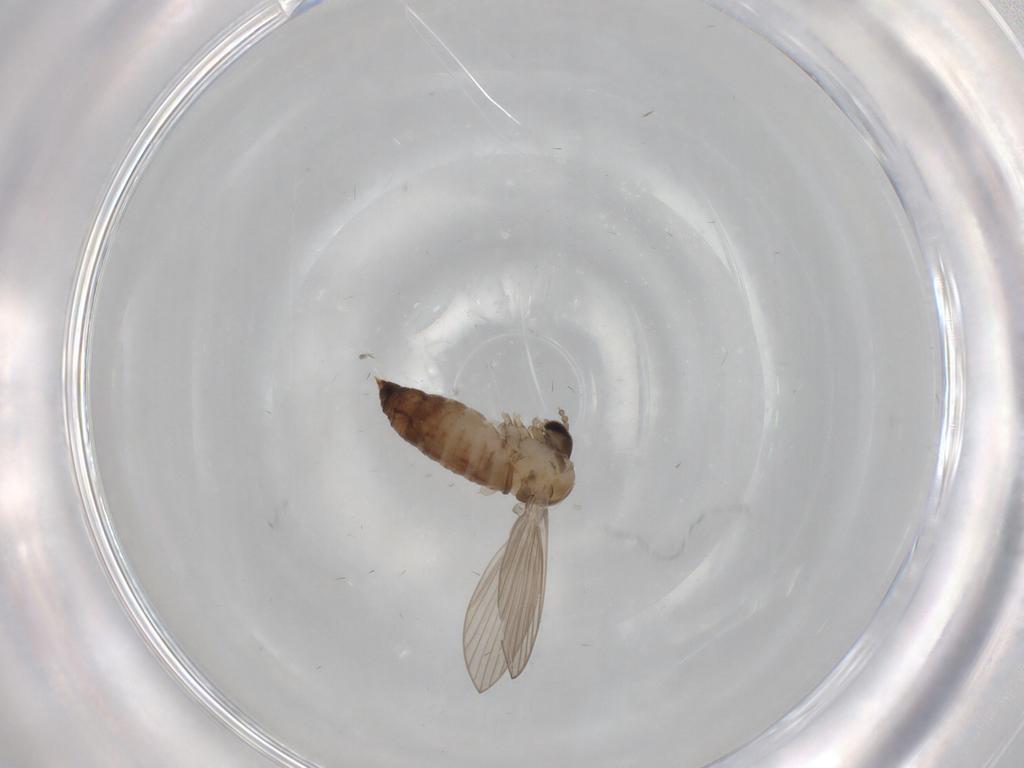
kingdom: Animalia
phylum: Arthropoda
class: Insecta
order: Diptera
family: Psychodidae
